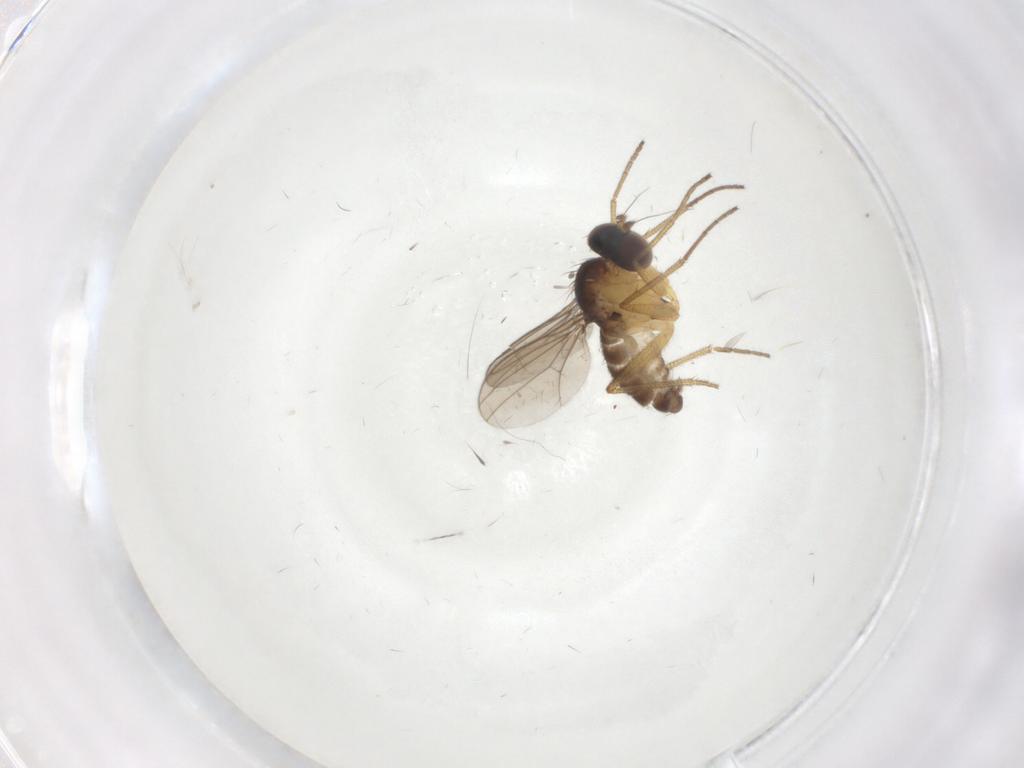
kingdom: Animalia
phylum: Arthropoda
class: Insecta
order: Diptera
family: Dolichopodidae
